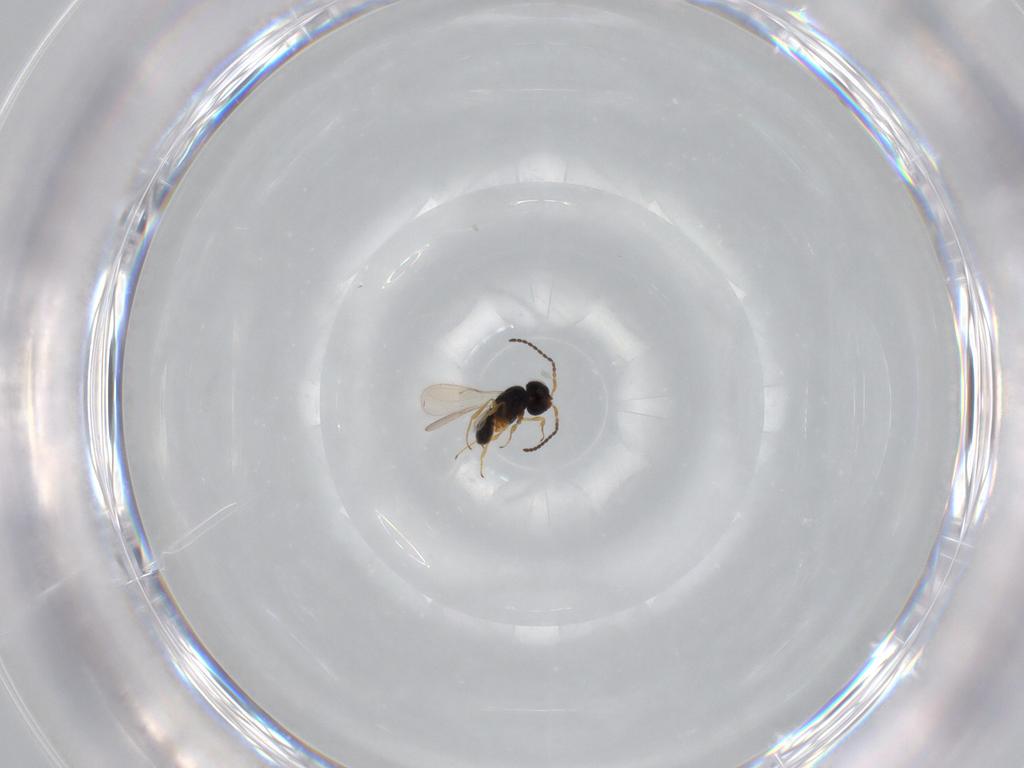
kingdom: Animalia
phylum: Arthropoda
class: Insecta
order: Hymenoptera
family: Scelionidae
